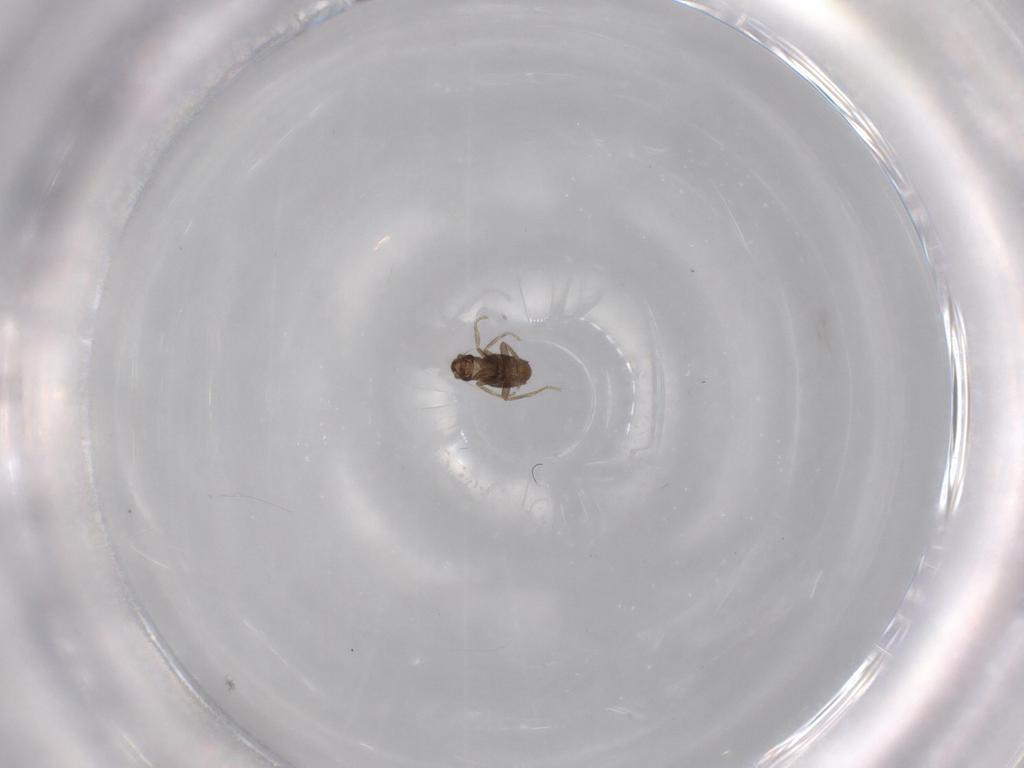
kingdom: Animalia
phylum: Arthropoda
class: Insecta
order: Diptera
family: Phoridae
